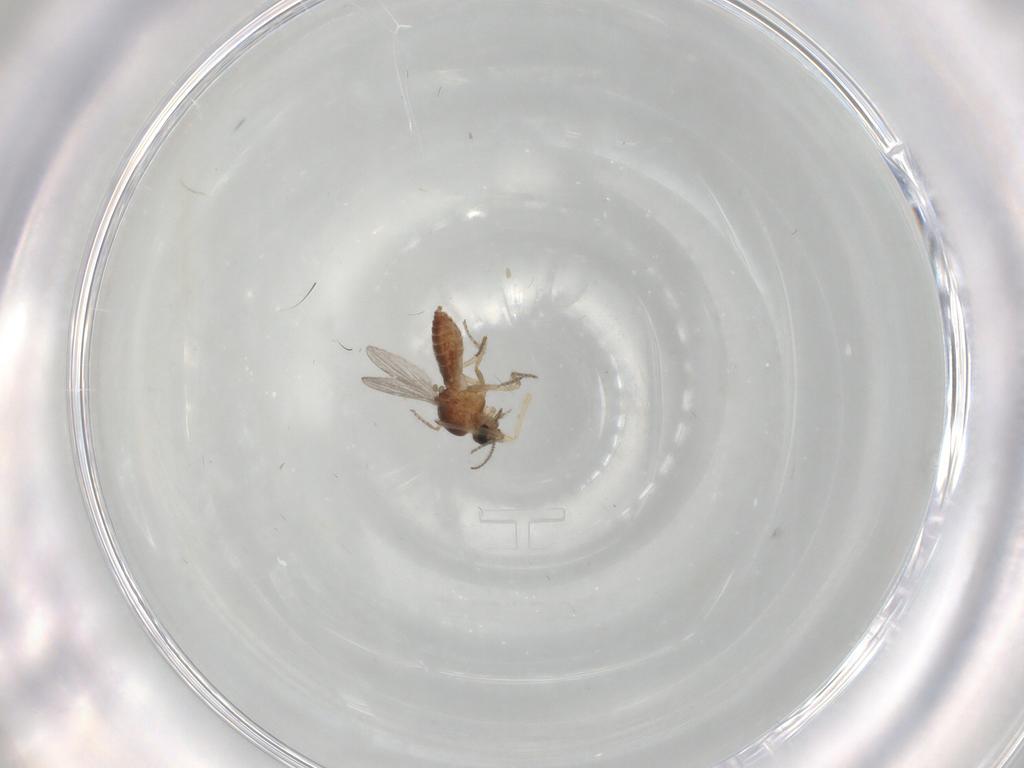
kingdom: Animalia
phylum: Arthropoda
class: Insecta
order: Diptera
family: Chironomidae
